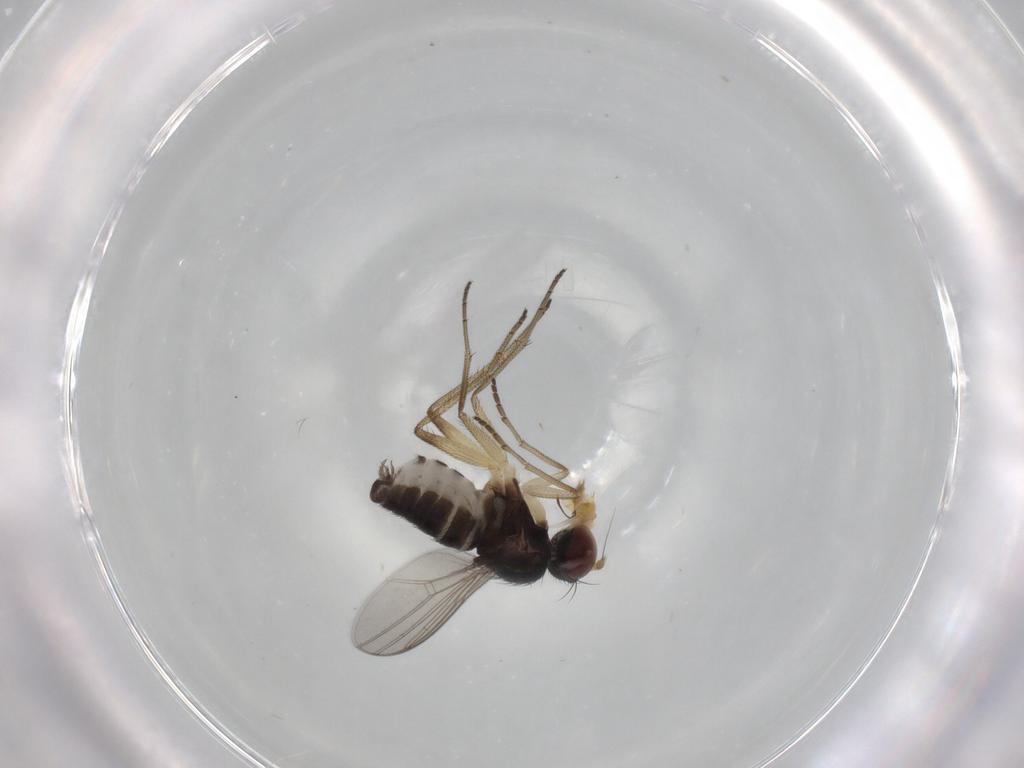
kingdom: Animalia
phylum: Arthropoda
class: Insecta
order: Diptera
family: Dolichopodidae
